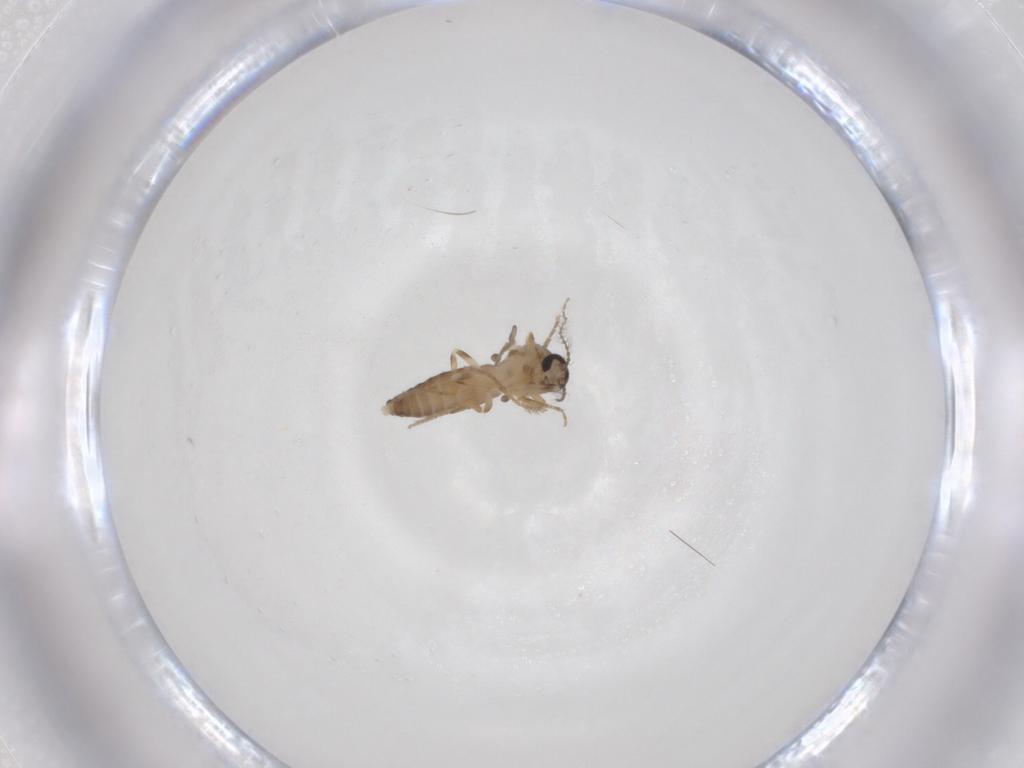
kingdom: Animalia
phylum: Arthropoda
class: Insecta
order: Diptera
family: Ceratopogonidae
